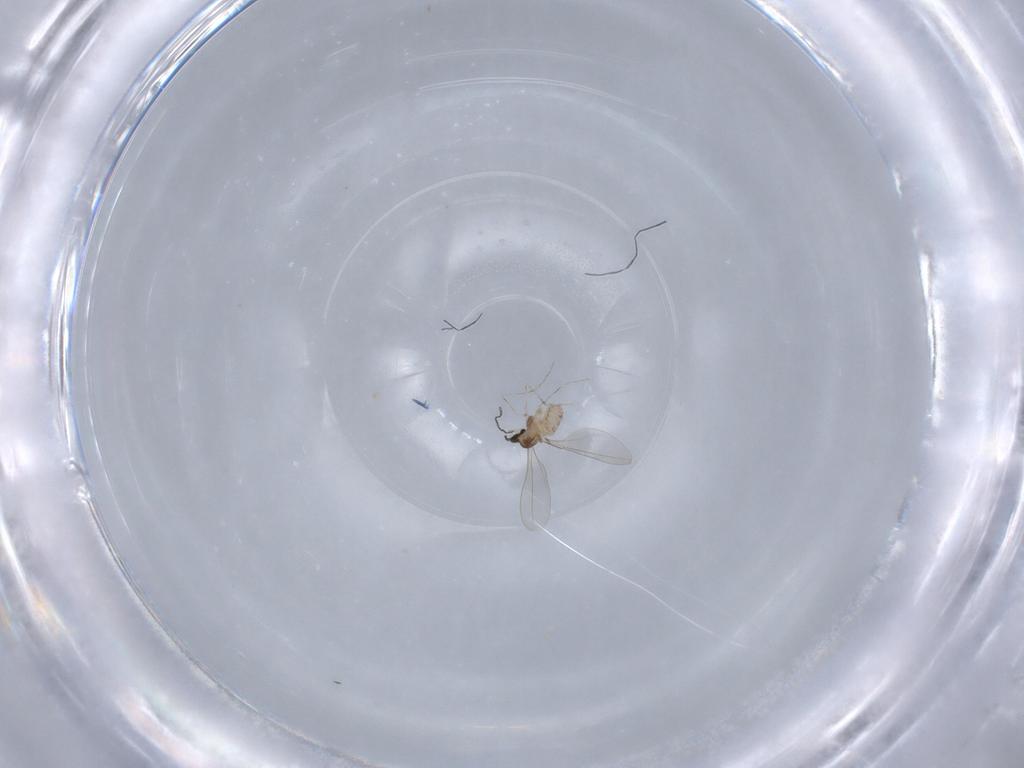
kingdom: Animalia
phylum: Arthropoda
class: Insecta
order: Diptera
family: Cecidomyiidae
